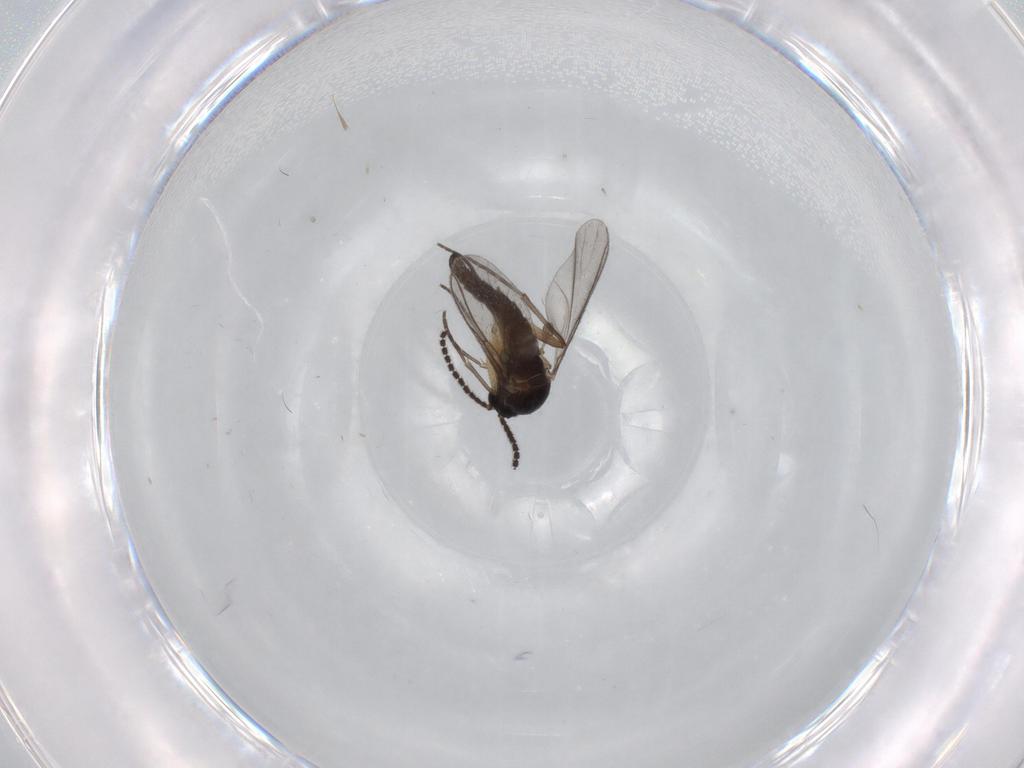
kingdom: Animalia
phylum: Arthropoda
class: Insecta
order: Diptera
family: Sciaridae
